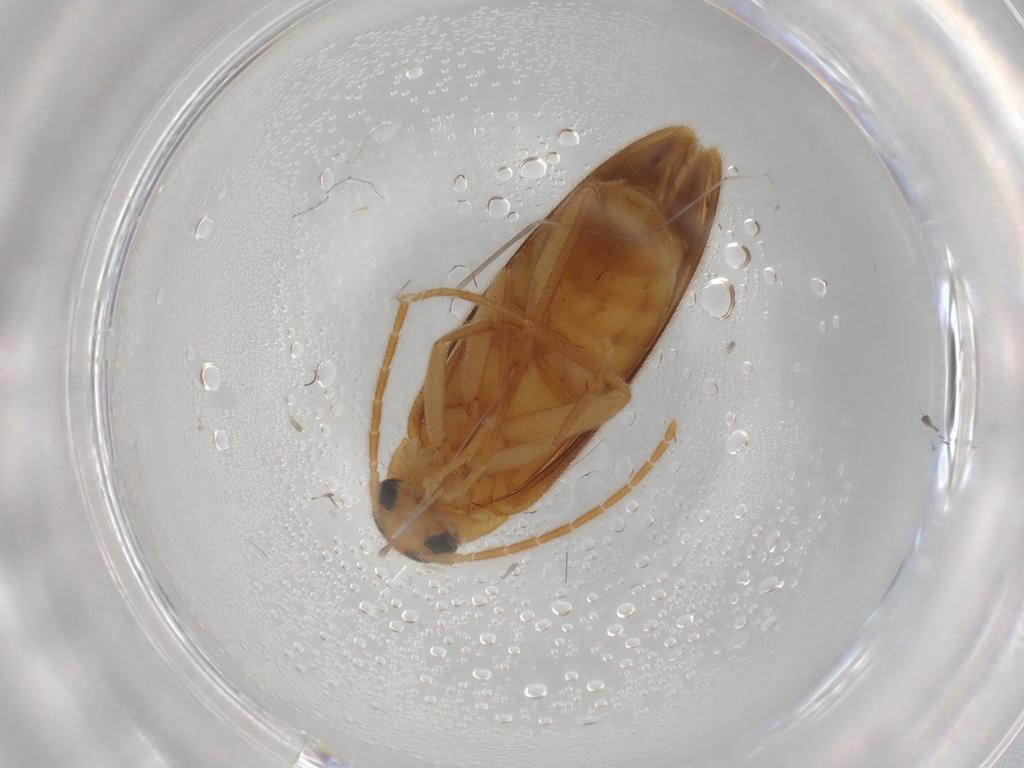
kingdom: Animalia
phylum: Arthropoda
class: Insecta
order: Coleoptera
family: Scraptiidae
